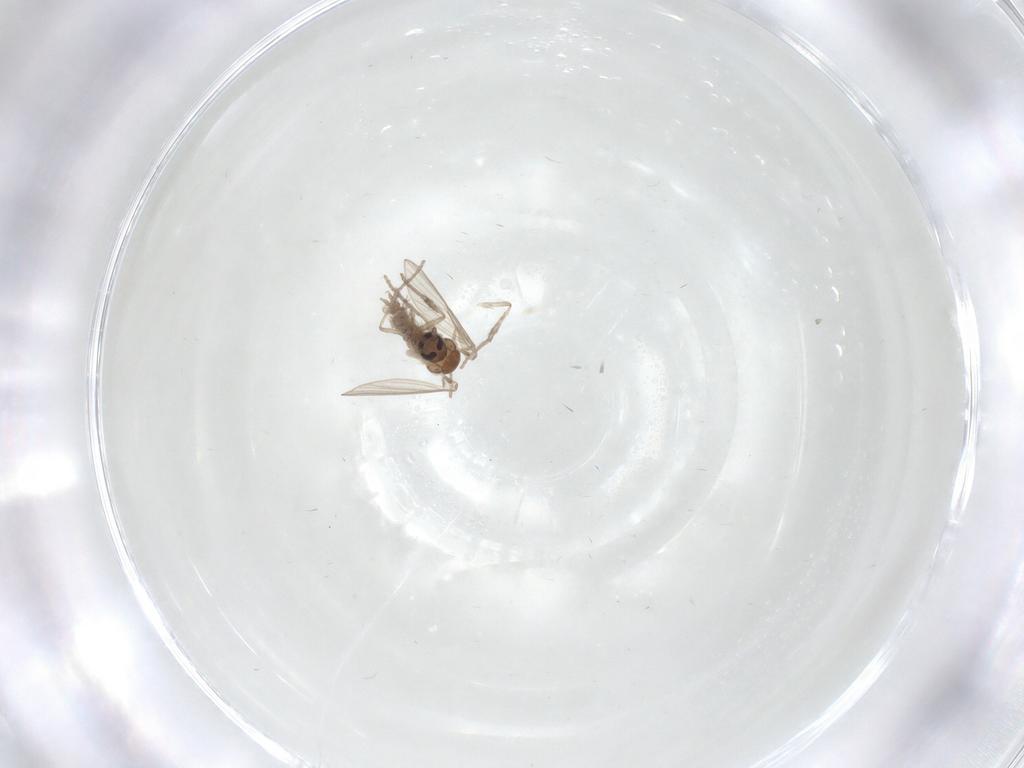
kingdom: Animalia
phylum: Arthropoda
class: Insecta
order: Diptera
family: Psychodidae
